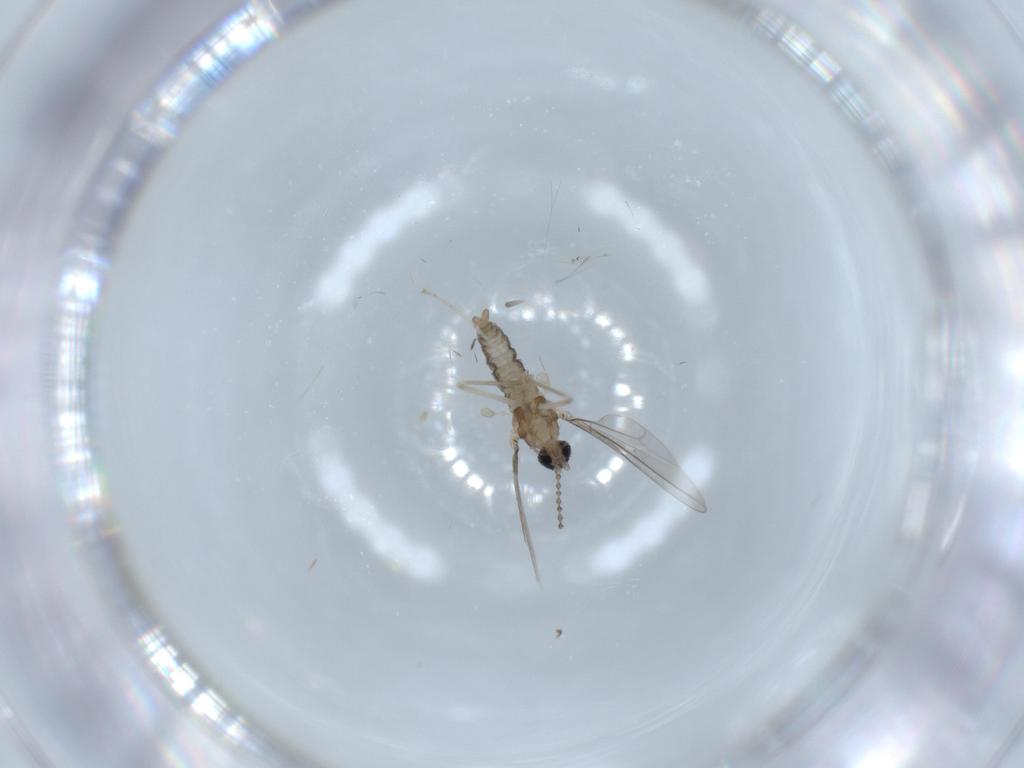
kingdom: Animalia
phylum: Arthropoda
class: Insecta
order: Diptera
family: Cecidomyiidae
